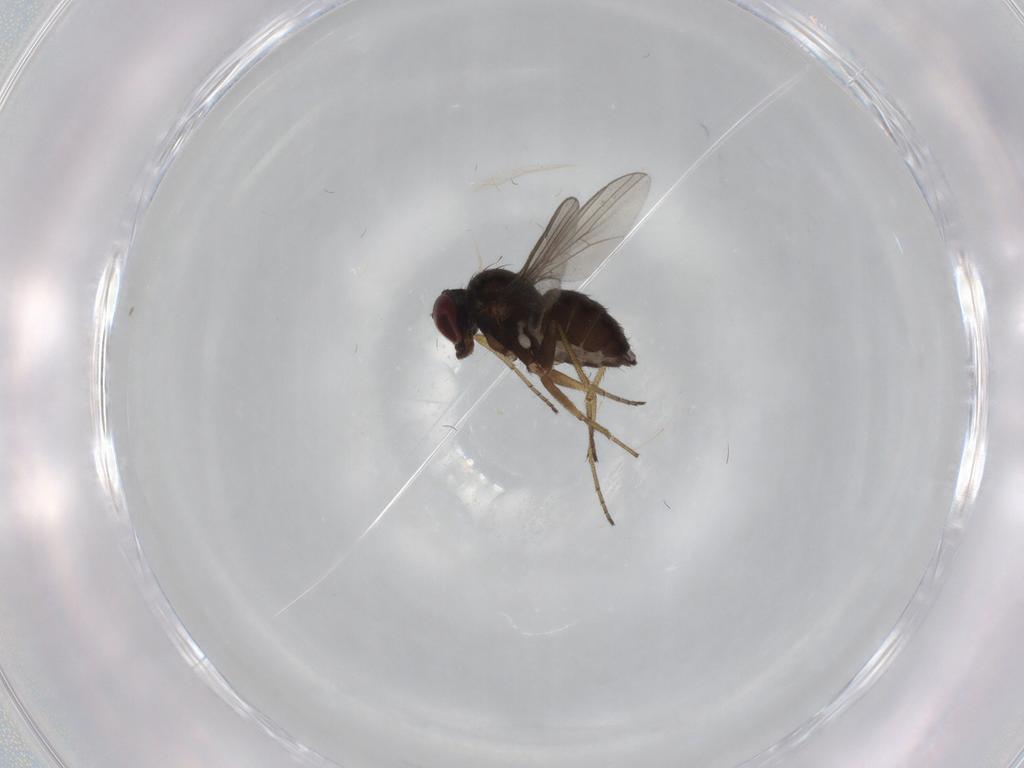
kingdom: Animalia
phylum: Arthropoda
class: Insecta
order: Diptera
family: Dolichopodidae
